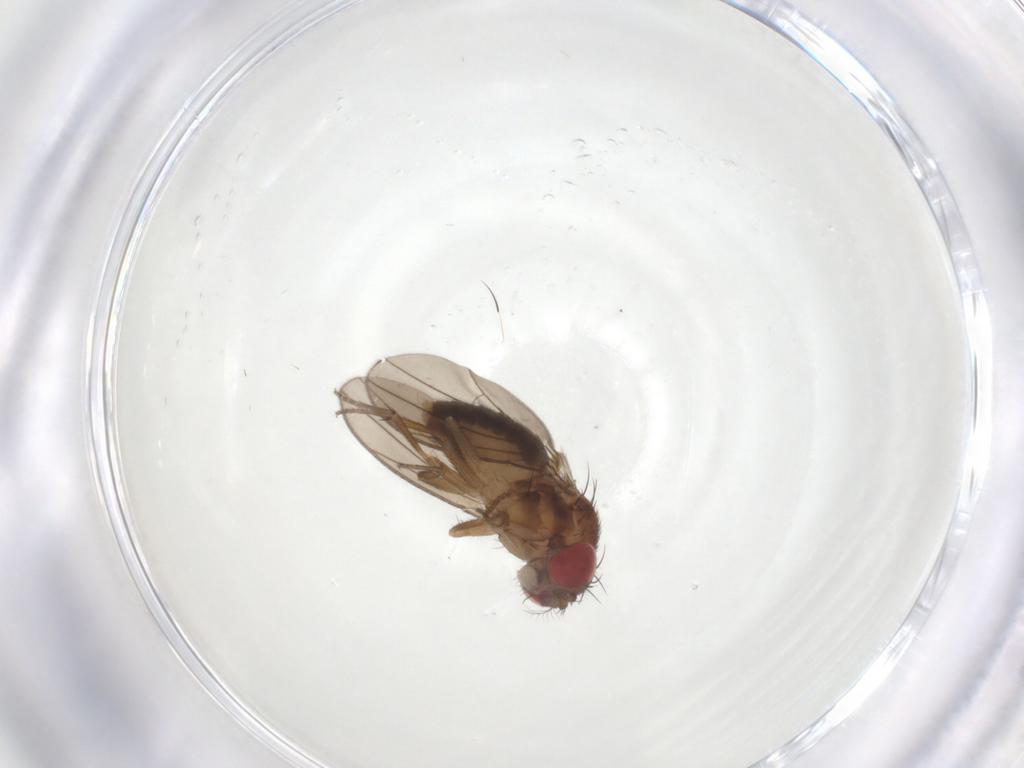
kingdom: Animalia
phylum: Arthropoda
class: Insecta
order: Diptera
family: Drosophilidae
